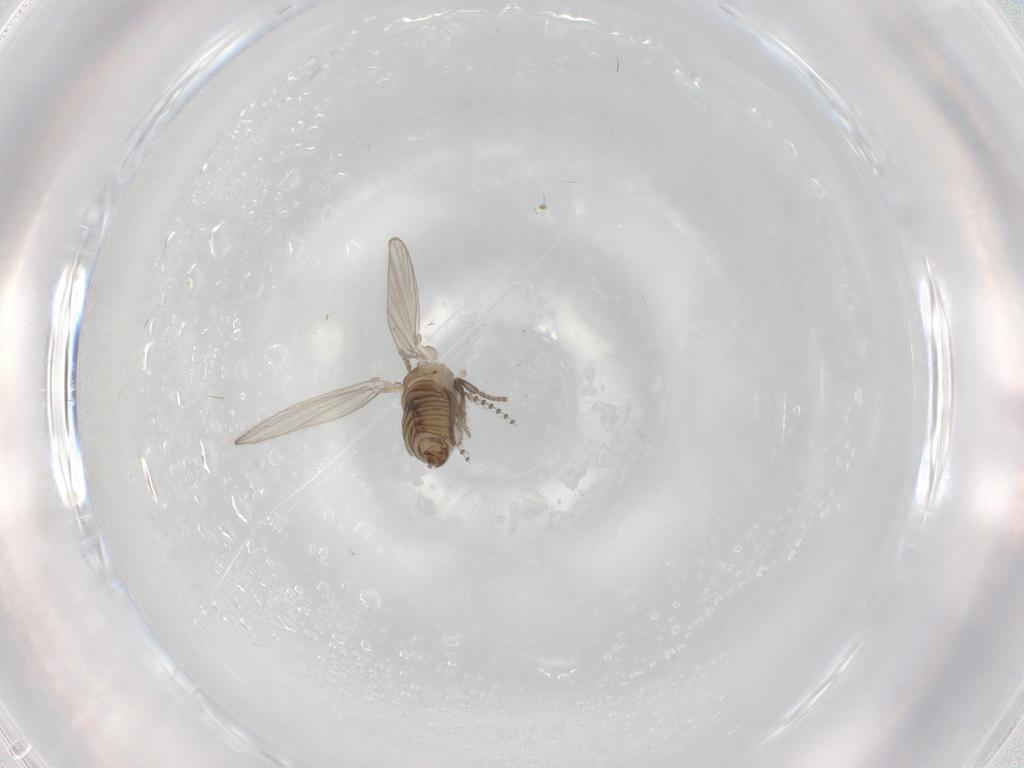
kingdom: Animalia
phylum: Arthropoda
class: Insecta
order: Diptera
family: Psychodidae
